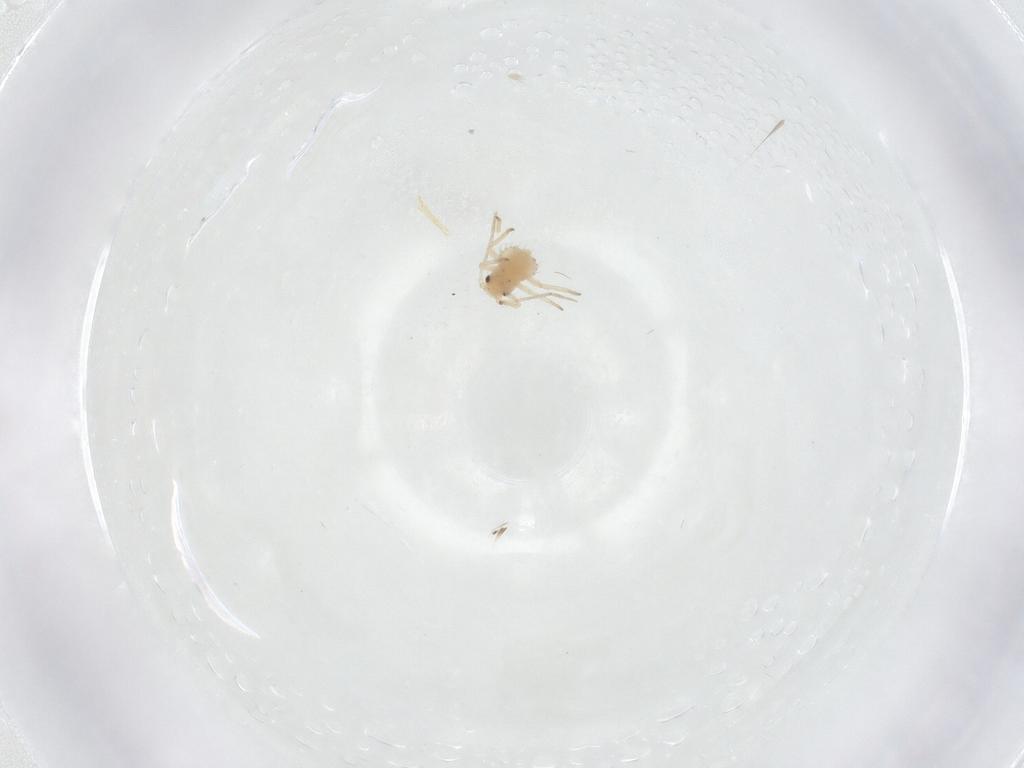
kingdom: Animalia
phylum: Arthropoda
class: Insecta
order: Hemiptera
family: Aphididae
